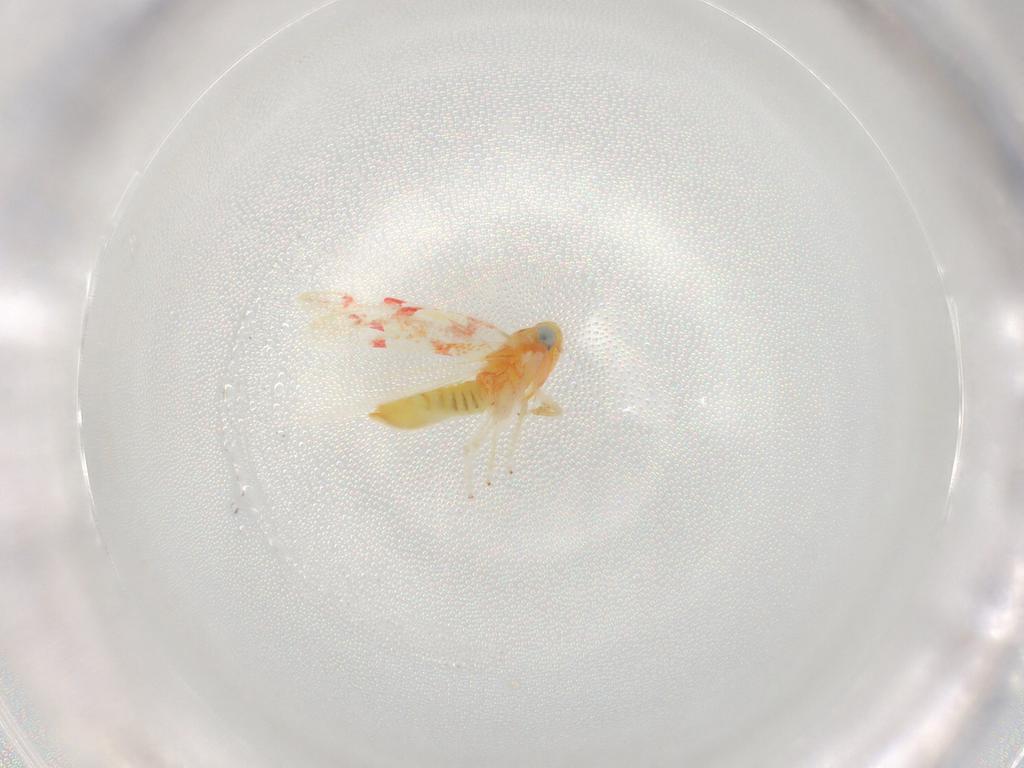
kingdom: Animalia
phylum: Arthropoda
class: Insecta
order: Hemiptera
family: Cicadellidae
